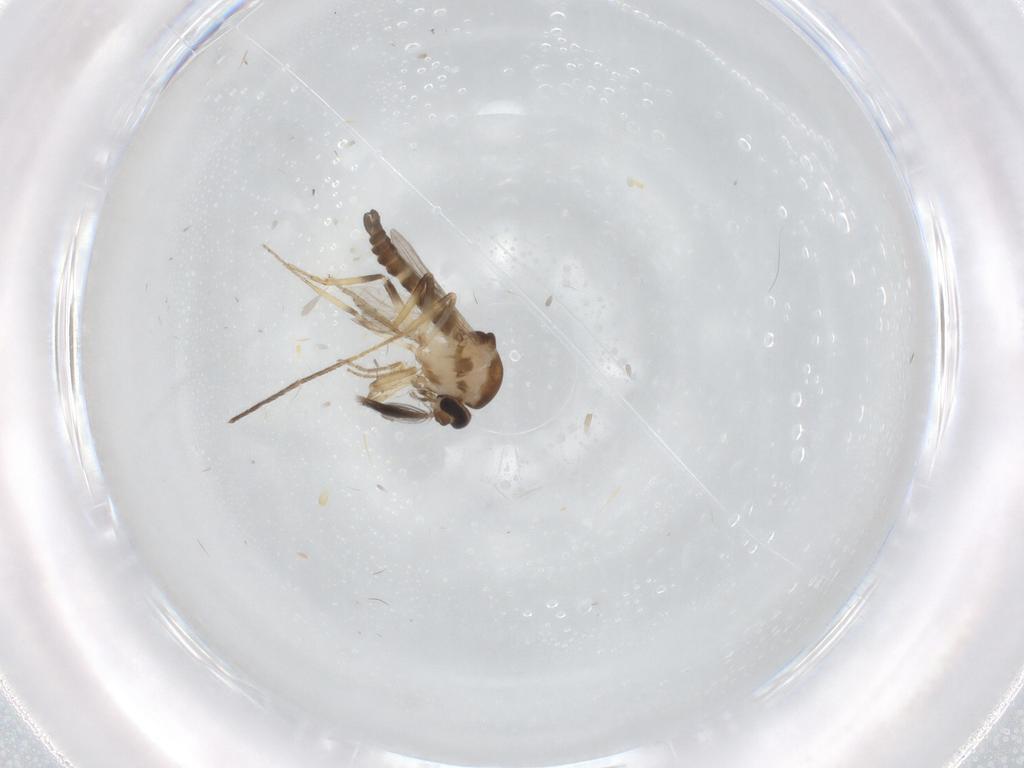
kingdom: Animalia
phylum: Arthropoda
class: Insecta
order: Diptera
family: Ceratopogonidae
